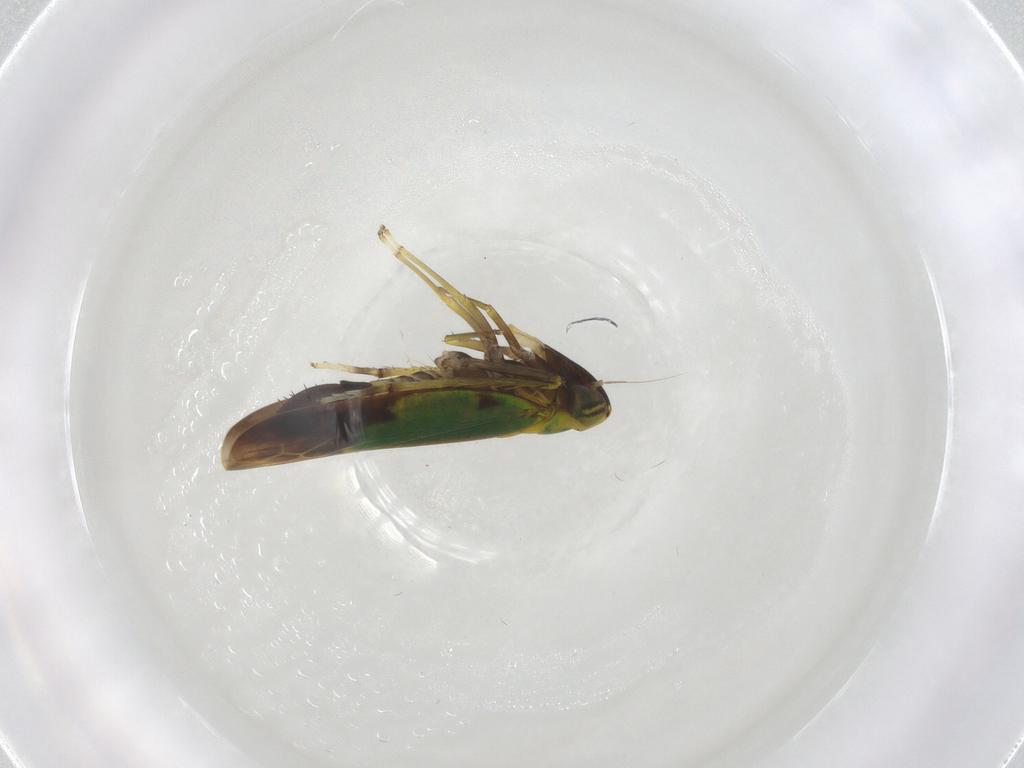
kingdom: Animalia
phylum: Arthropoda
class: Insecta
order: Hemiptera
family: Cicadellidae
